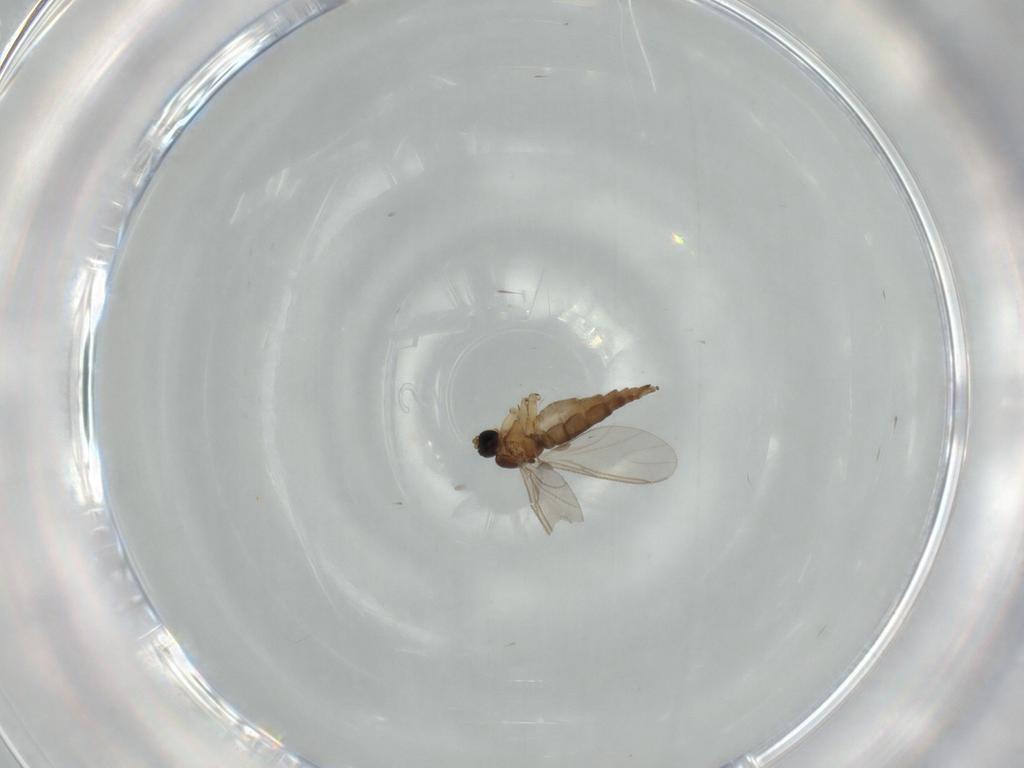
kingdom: Animalia
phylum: Arthropoda
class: Insecta
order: Diptera
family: Sciaridae
